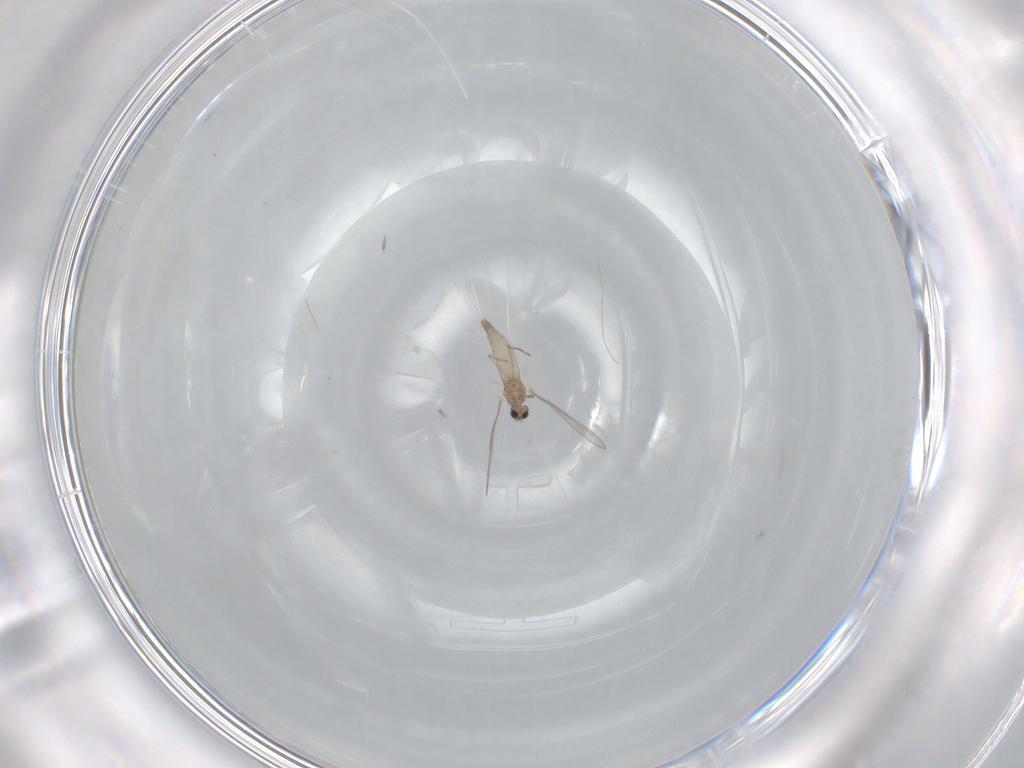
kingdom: Animalia
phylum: Arthropoda
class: Insecta
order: Diptera
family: Cecidomyiidae
